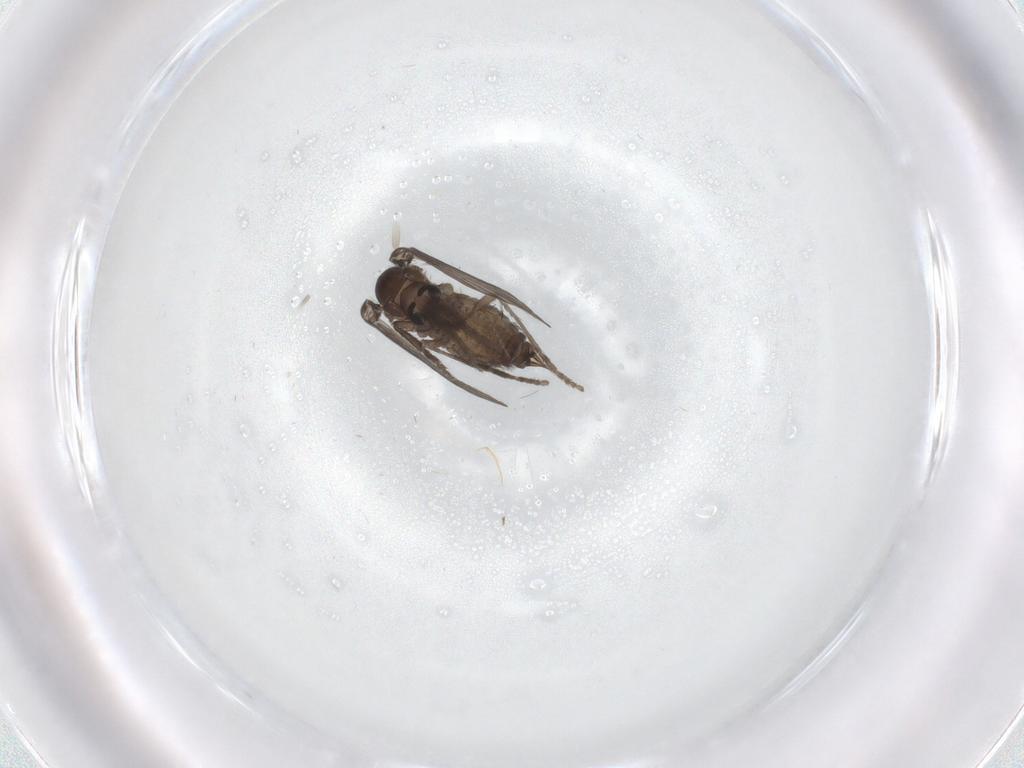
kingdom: Animalia
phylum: Arthropoda
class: Insecta
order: Diptera
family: Psychodidae
